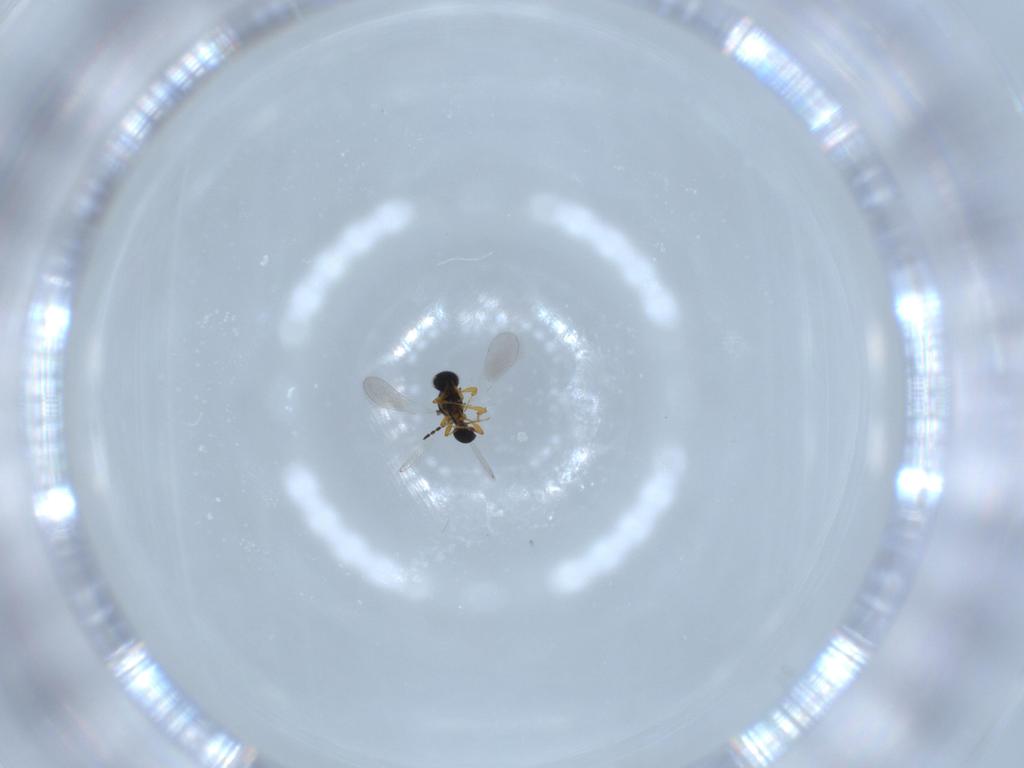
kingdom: Animalia
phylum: Arthropoda
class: Insecta
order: Hymenoptera
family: Platygastridae
